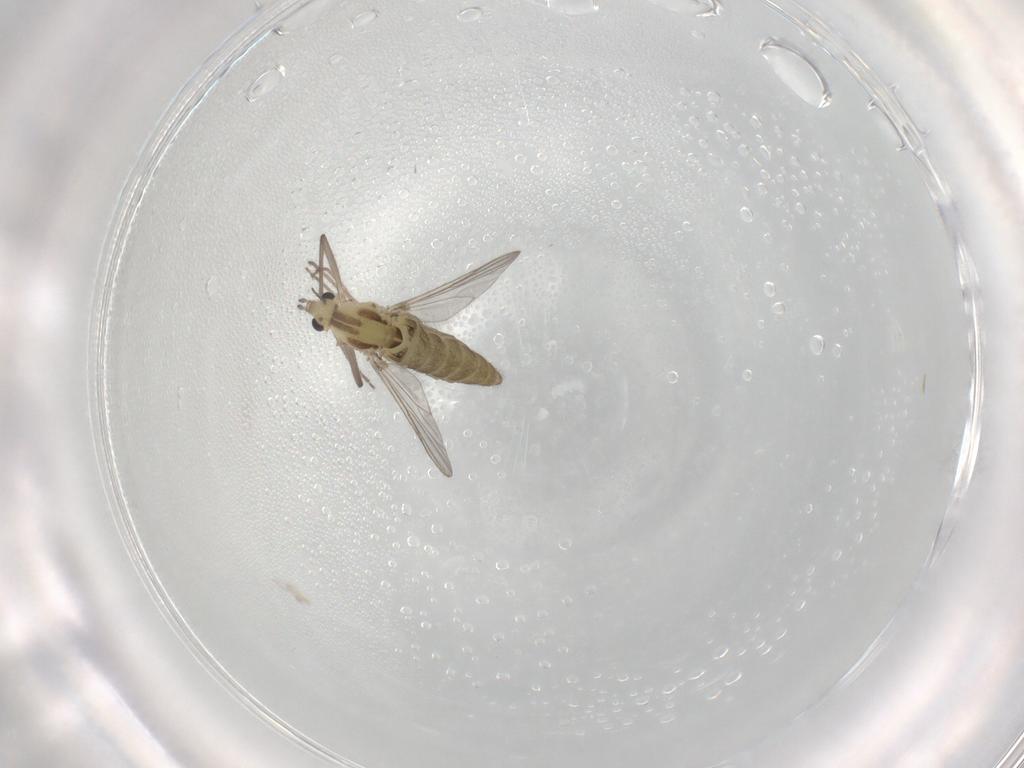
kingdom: Animalia
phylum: Arthropoda
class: Insecta
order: Diptera
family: Chironomidae
